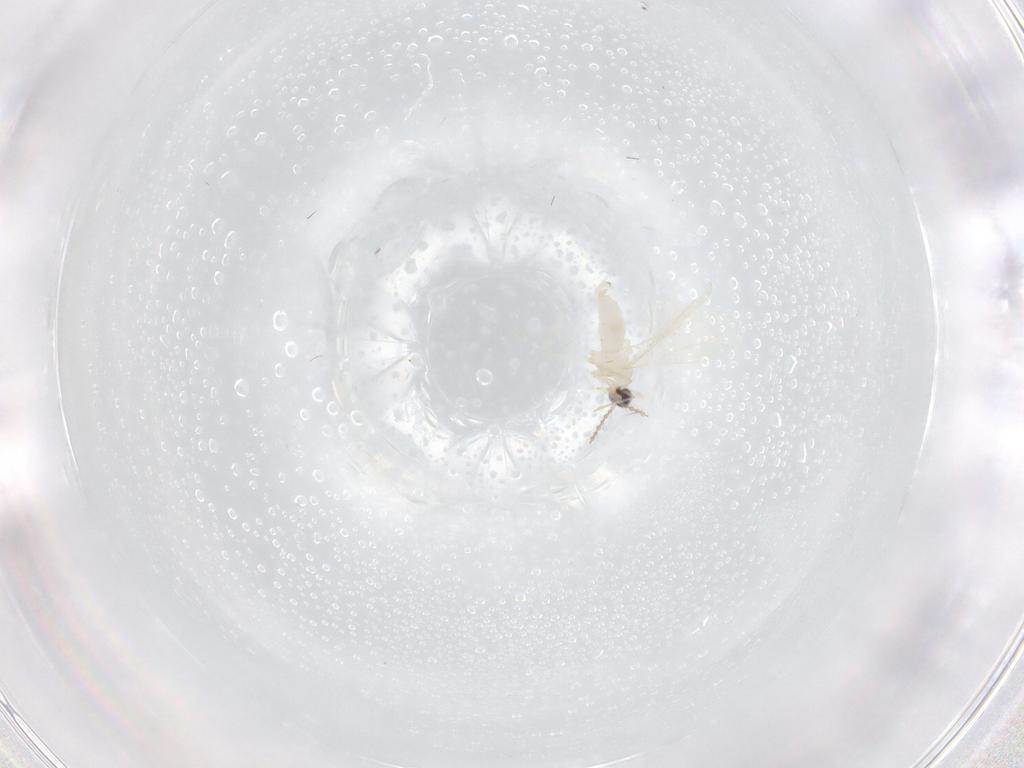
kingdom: Animalia
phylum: Arthropoda
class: Insecta
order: Diptera
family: Cecidomyiidae
